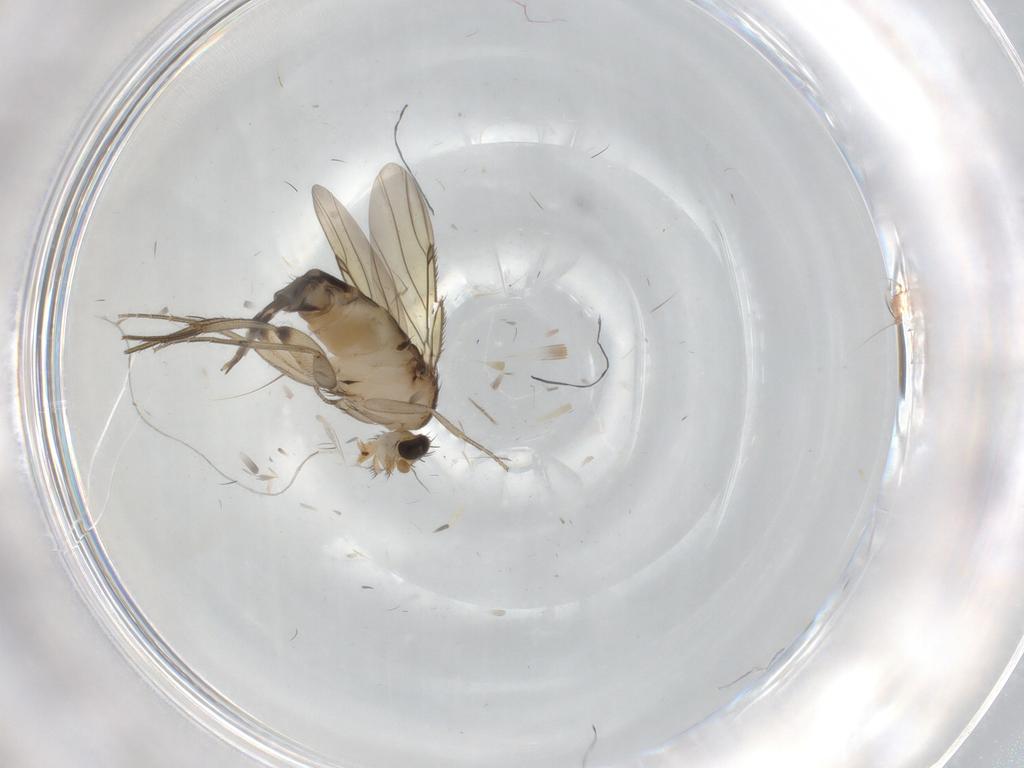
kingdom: Animalia
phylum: Arthropoda
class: Insecta
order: Diptera
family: Phoridae
